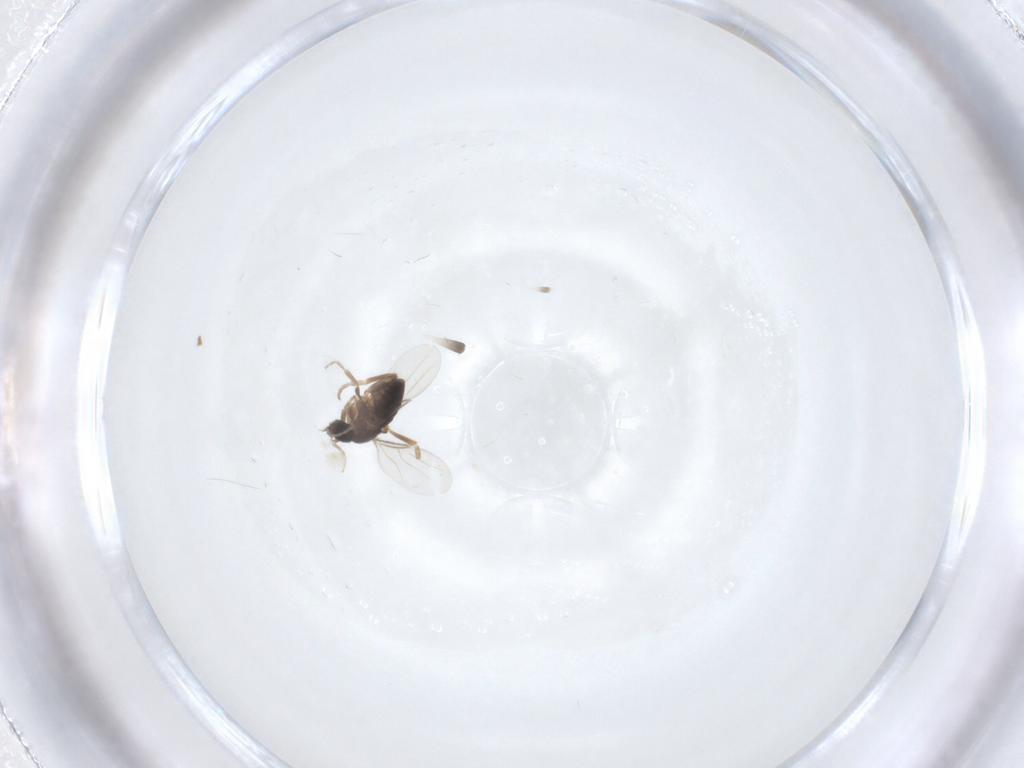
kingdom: Animalia
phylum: Arthropoda
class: Insecta
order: Diptera
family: Phoridae
